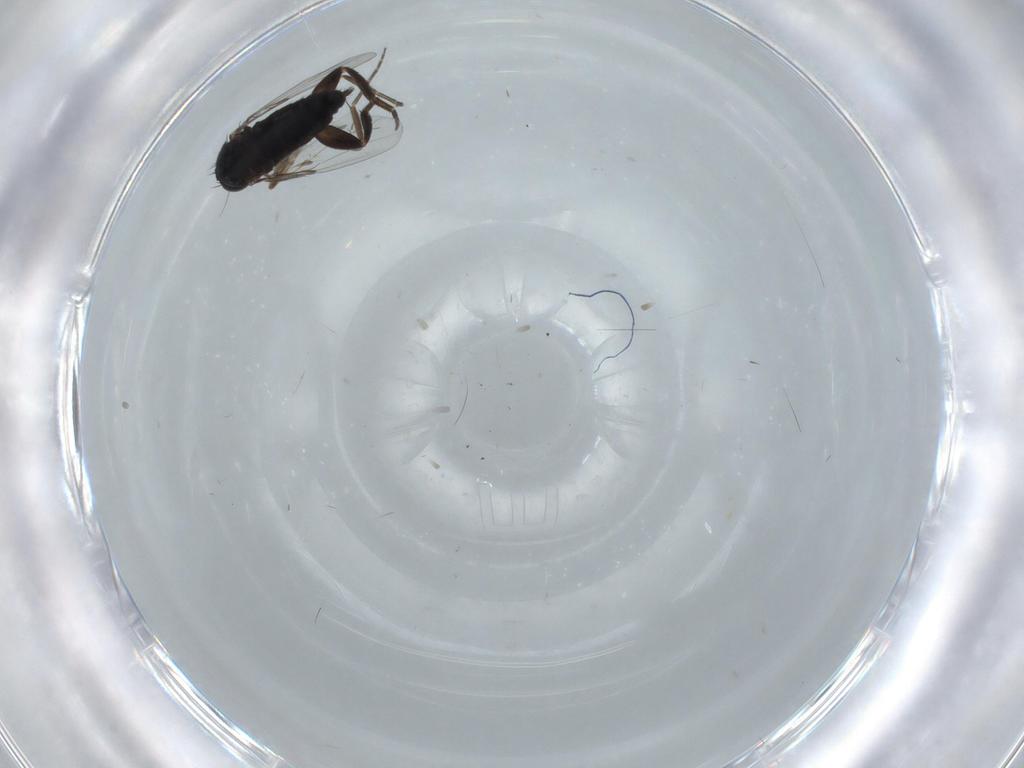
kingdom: Animalia
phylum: Arthropoda
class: Insecta
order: Diptera
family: Phoridae
